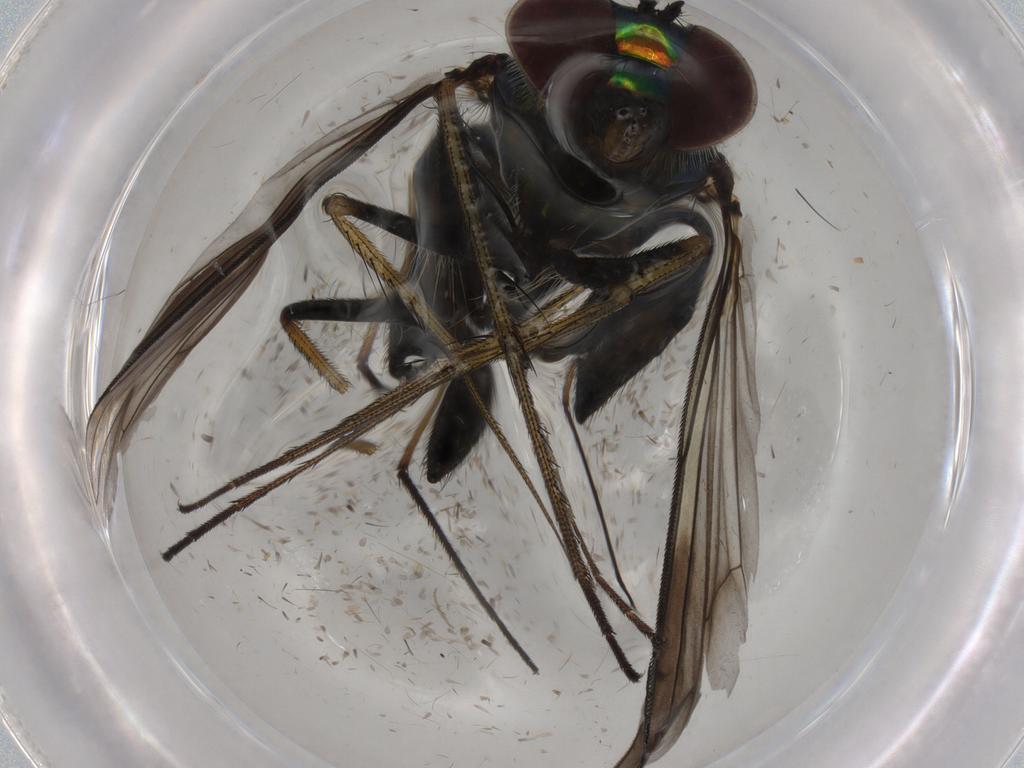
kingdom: Animalia
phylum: Arthropoda
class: Insecta
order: Diptera
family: Dolichopodidae
